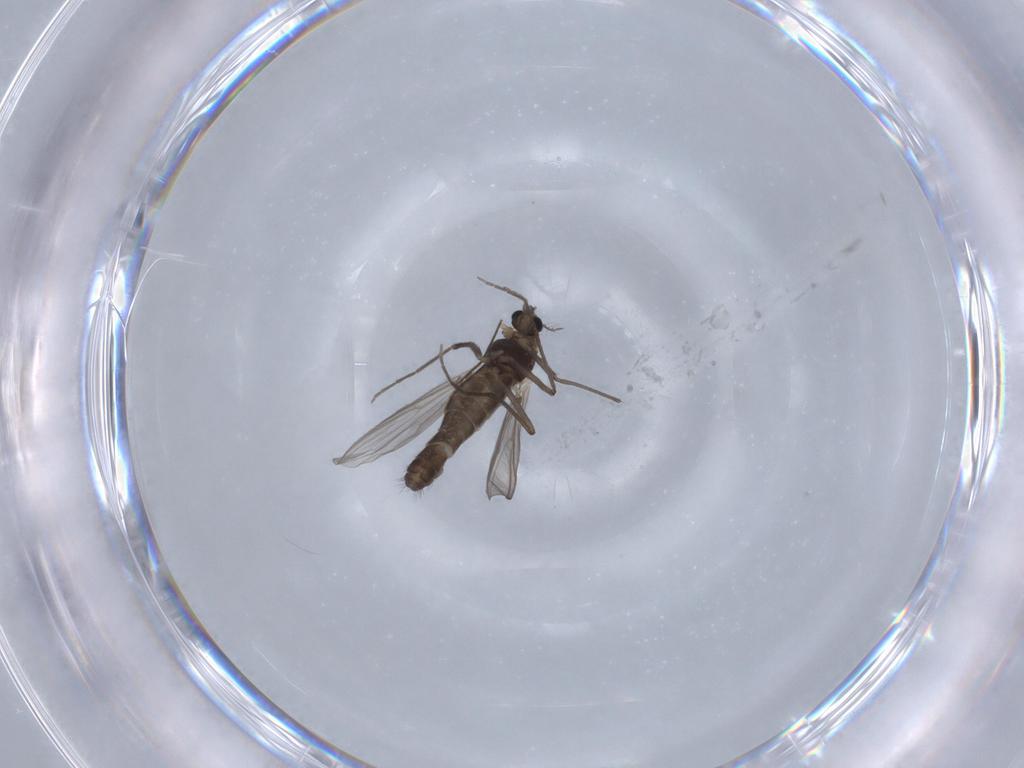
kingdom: Animalia
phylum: Arthropoda
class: Insecta
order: Diptera
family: Chironomidae
